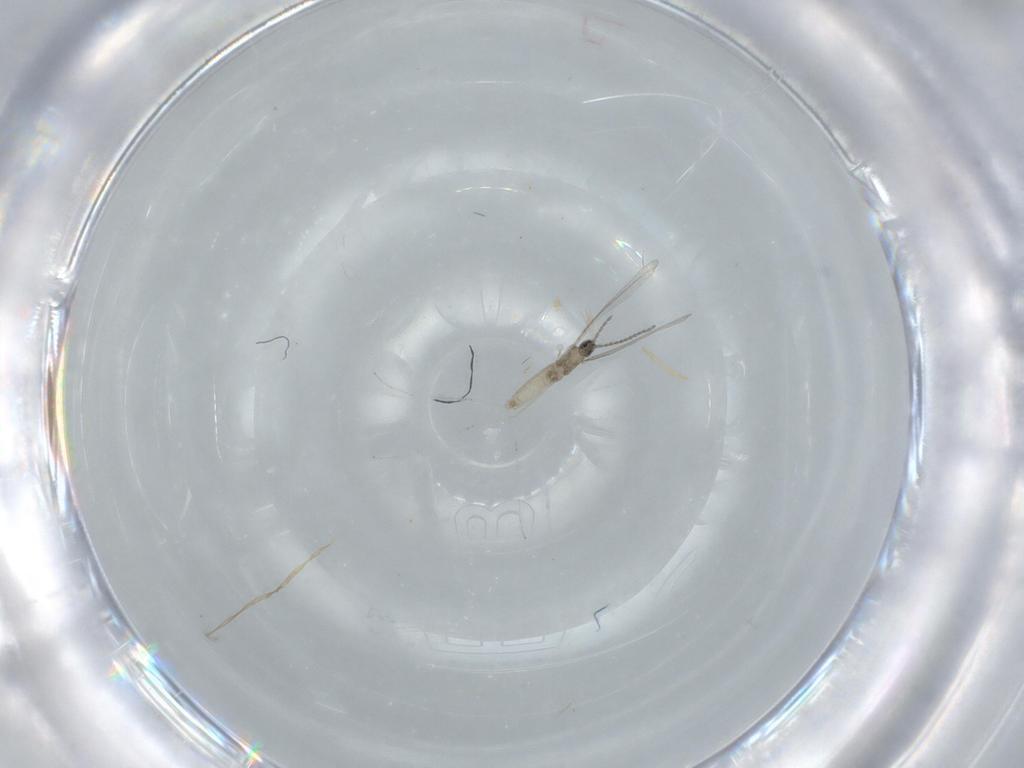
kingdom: Animalia
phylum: Arthropoda
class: Insecta
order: Diptera
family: Cecidomyiidae
